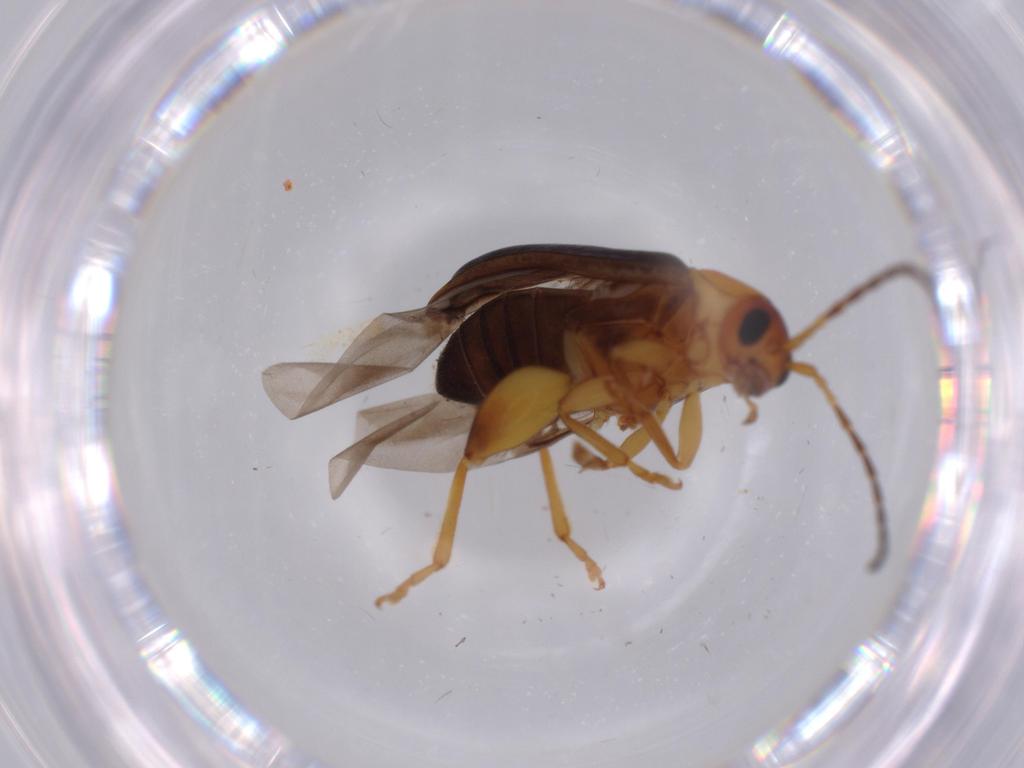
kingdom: Animalia
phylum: Arthropoda
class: Insecta
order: Coleoptera
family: Chrysomelidae
